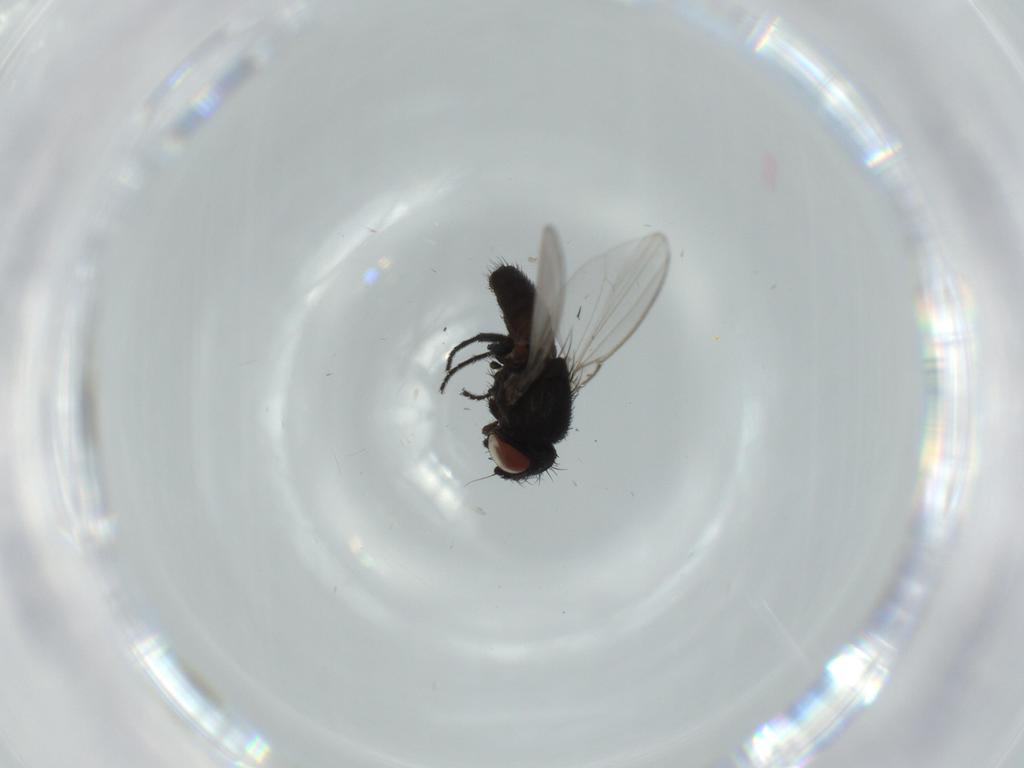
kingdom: Animalia
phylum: Arthropoda
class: Insecta
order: Diptera
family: Milichiidae
